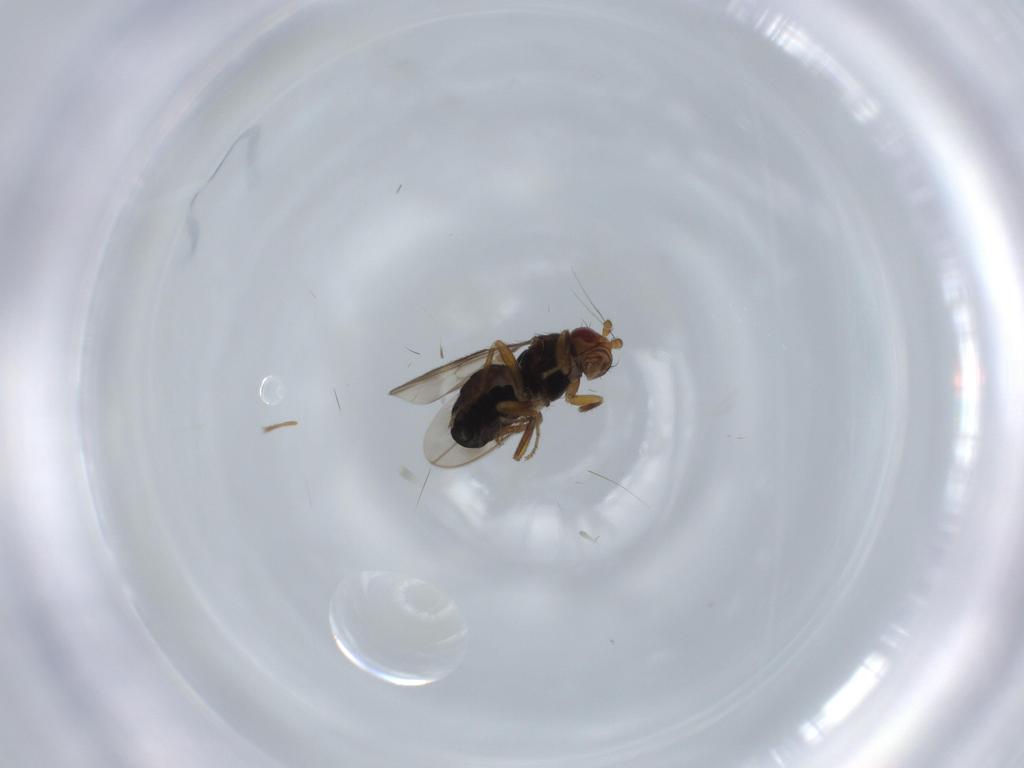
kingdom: Animalia
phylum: Arthropoda
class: Insecta
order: Diptera
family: Sphaeroceridae
